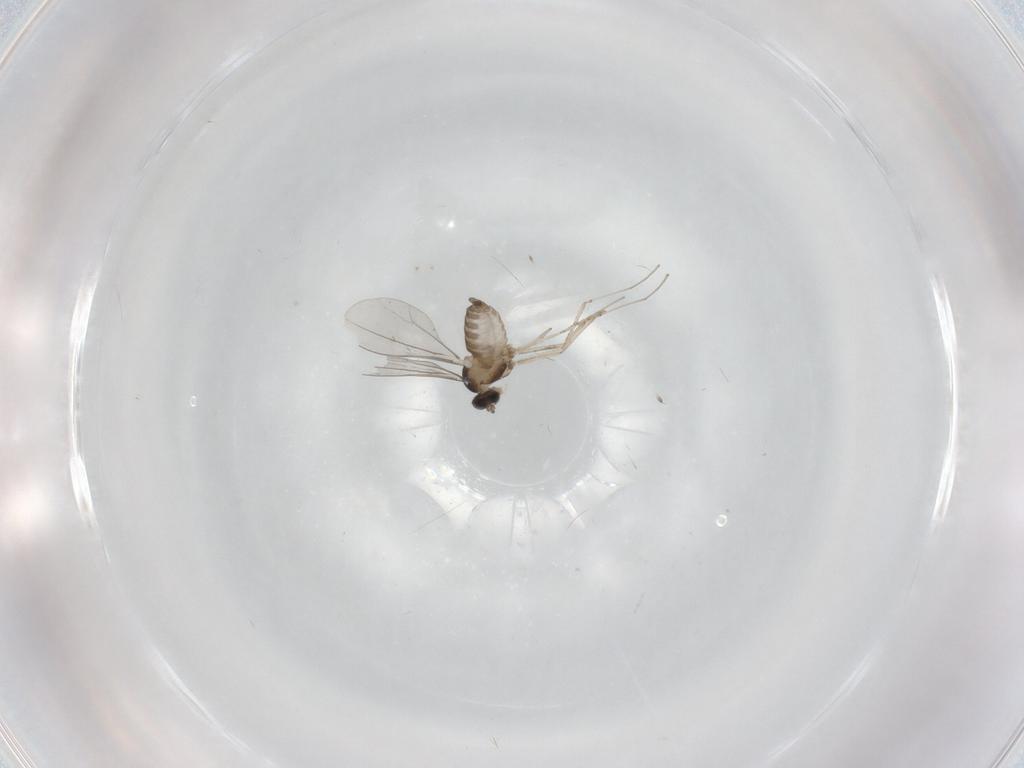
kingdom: Animalia
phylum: Arthropoda
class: Insecta
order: Diptera
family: Cecidomyiidae
